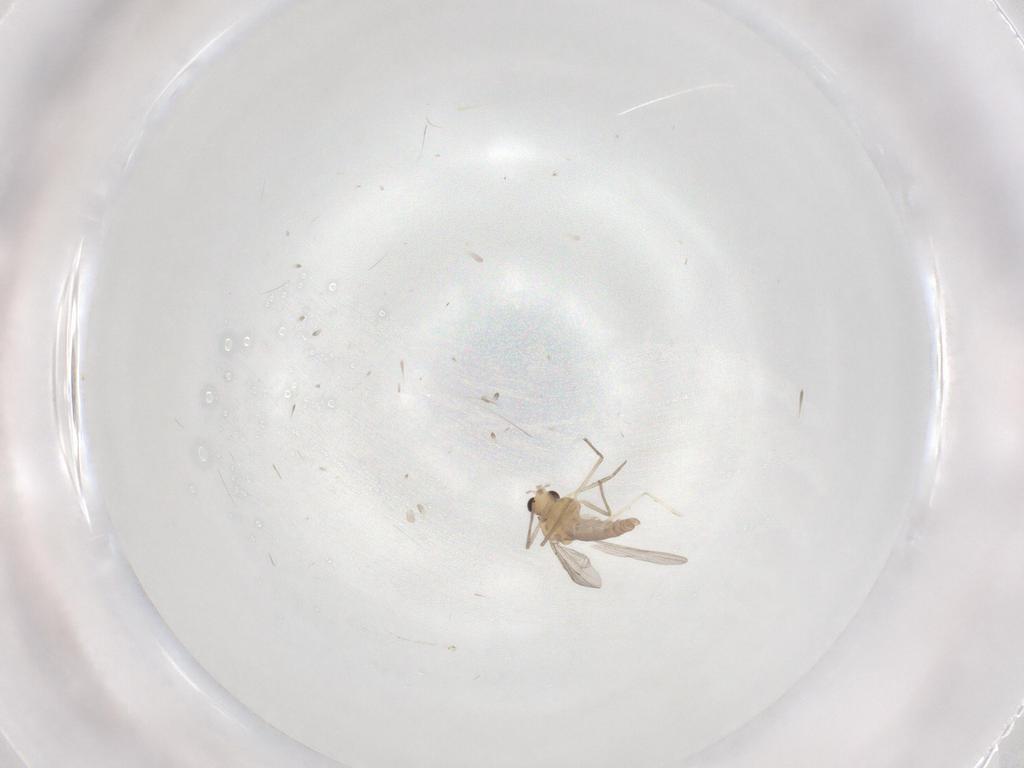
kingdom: Animalia
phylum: Arthropoda
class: Insecta
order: Diptera
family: Chironomidae
